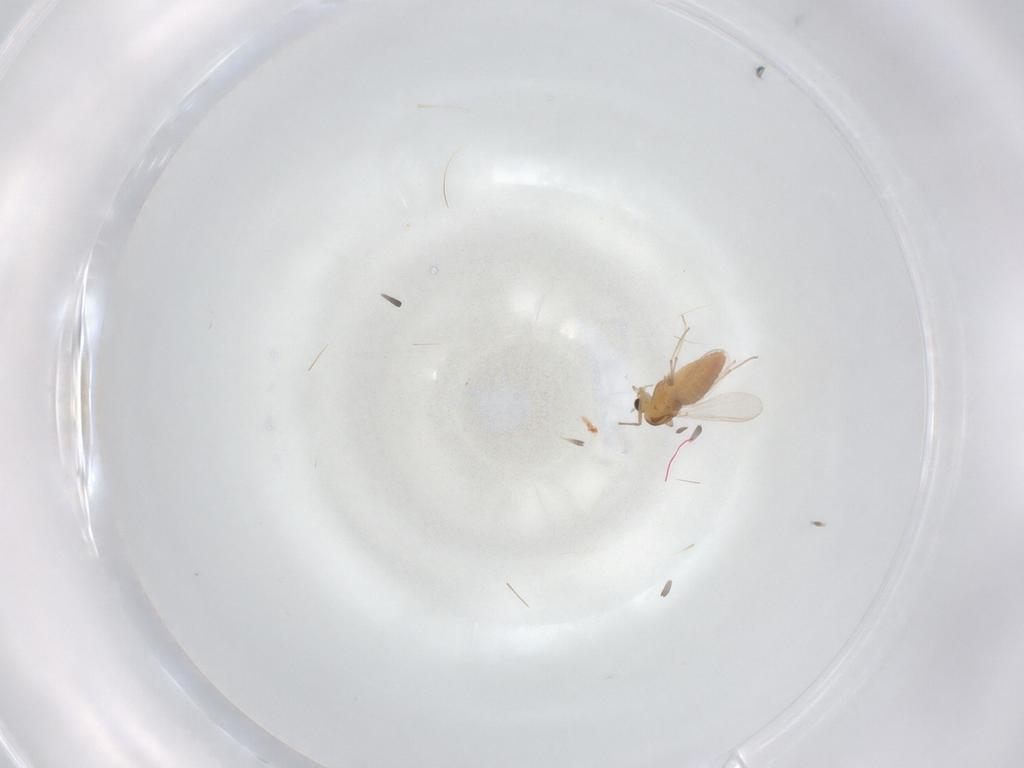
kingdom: Animalia
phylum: Arthropoda
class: Insecta
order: Diptera
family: Chironomidae
